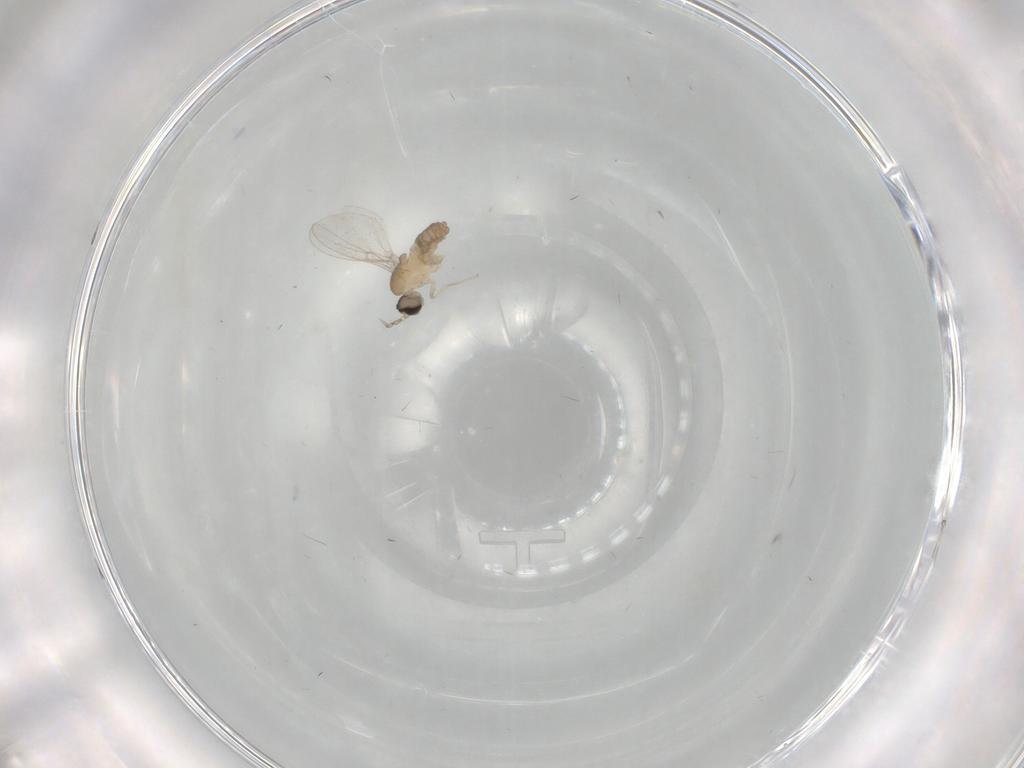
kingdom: Animalia
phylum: Arthropoda
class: Insecta
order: Diptera
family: Cecidomyiidae
